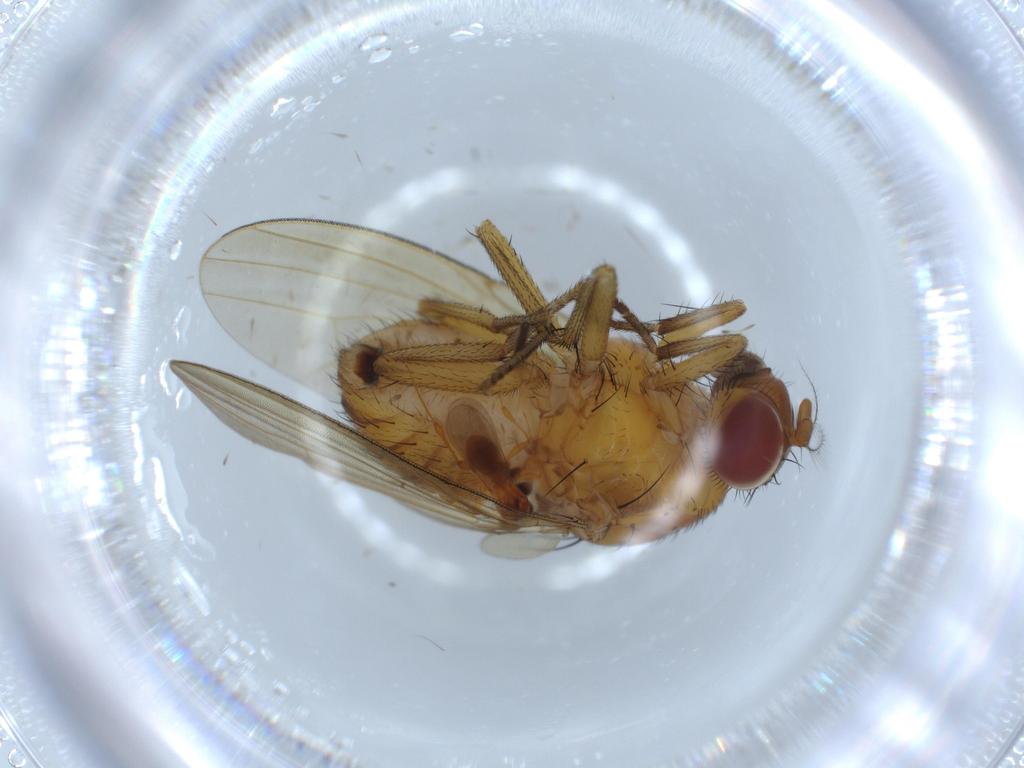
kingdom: Animalia
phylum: Arthropoda
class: Insecta
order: Diptera
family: Sciaridae
